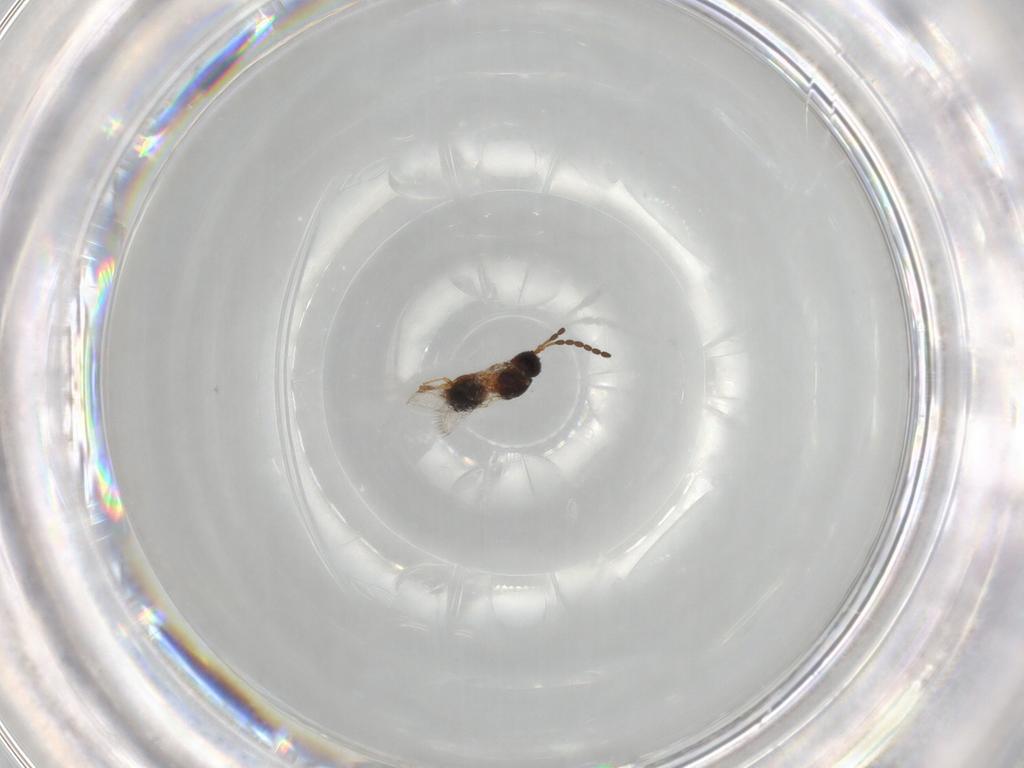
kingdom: Animalia
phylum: Arthropoda
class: Insecta
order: Hymenoptera
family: Figitidae
